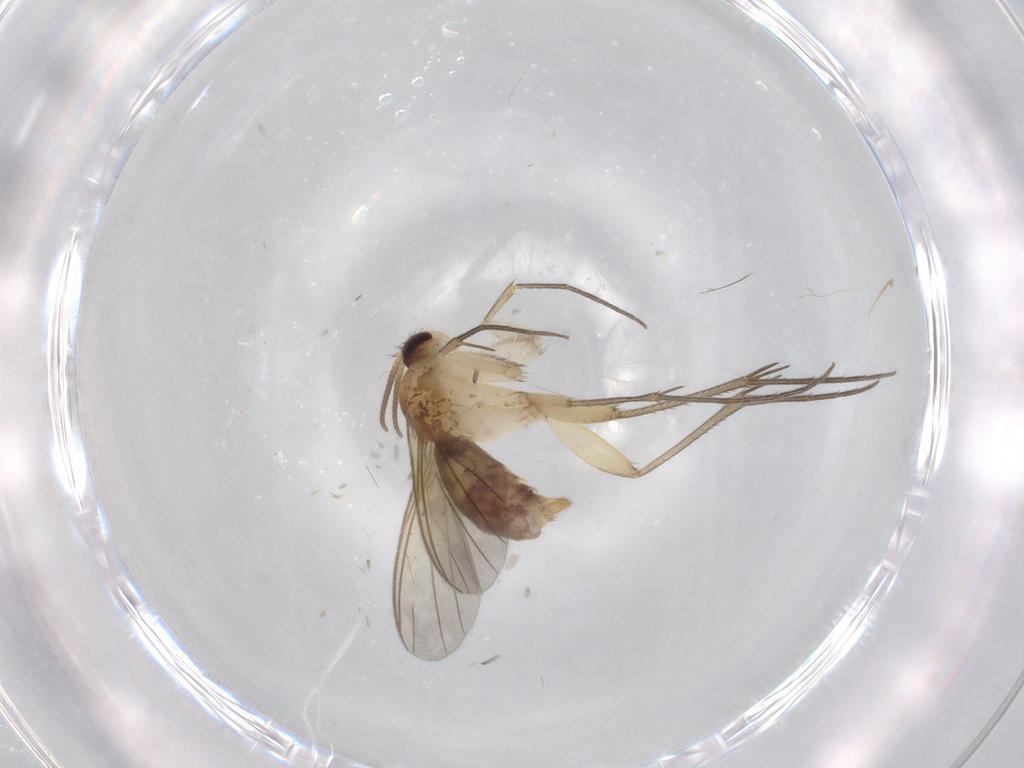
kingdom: Animalia
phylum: Arthropoda
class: Insecta
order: Diptera
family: Mycetophilidae
